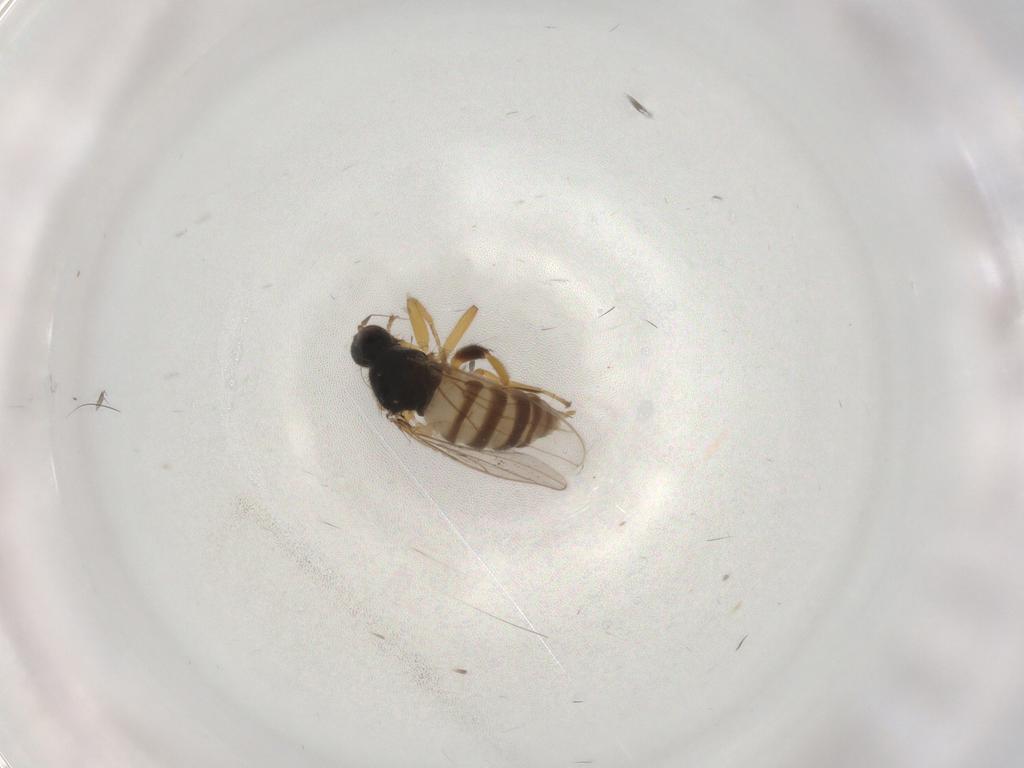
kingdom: Animalia
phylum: Arthropoda
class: Insecta
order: Diptera
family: Hybotidae
